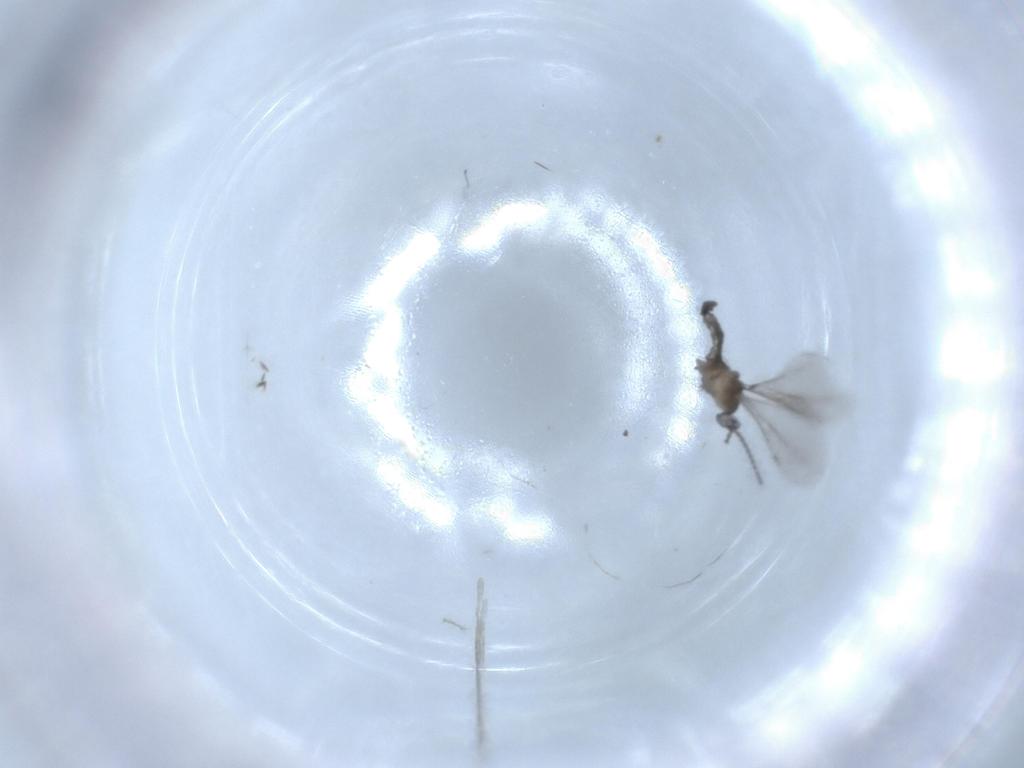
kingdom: Animalia
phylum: Arthropoda
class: Insecta
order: Diptera
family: Cecidomyiidae
